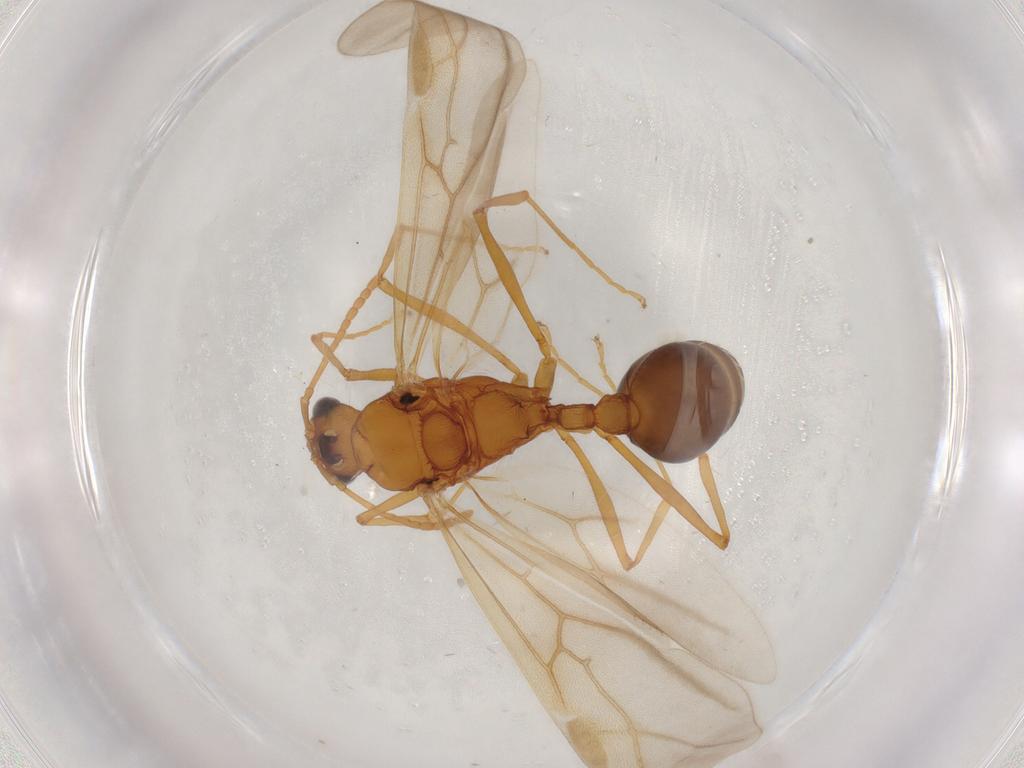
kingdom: Animalia
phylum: Arthropoda
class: Insecta
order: Hymenoptera
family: Formicidae
